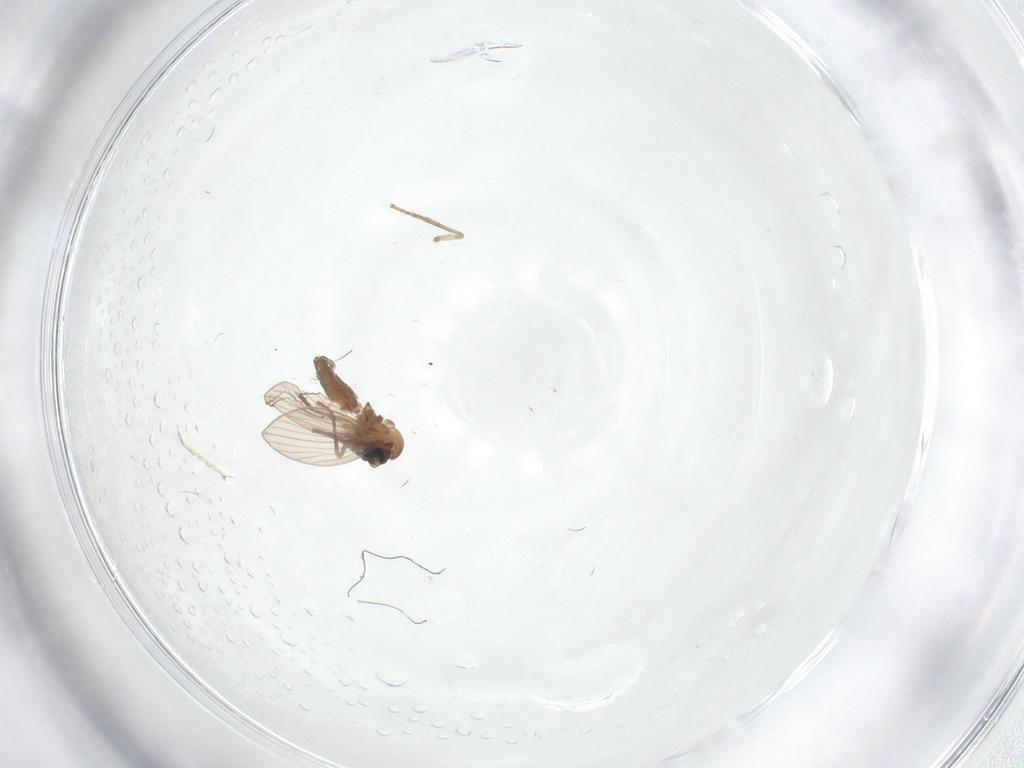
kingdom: Animalia
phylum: Arthropoda
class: Insecta
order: Diptera
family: Psychodidae
